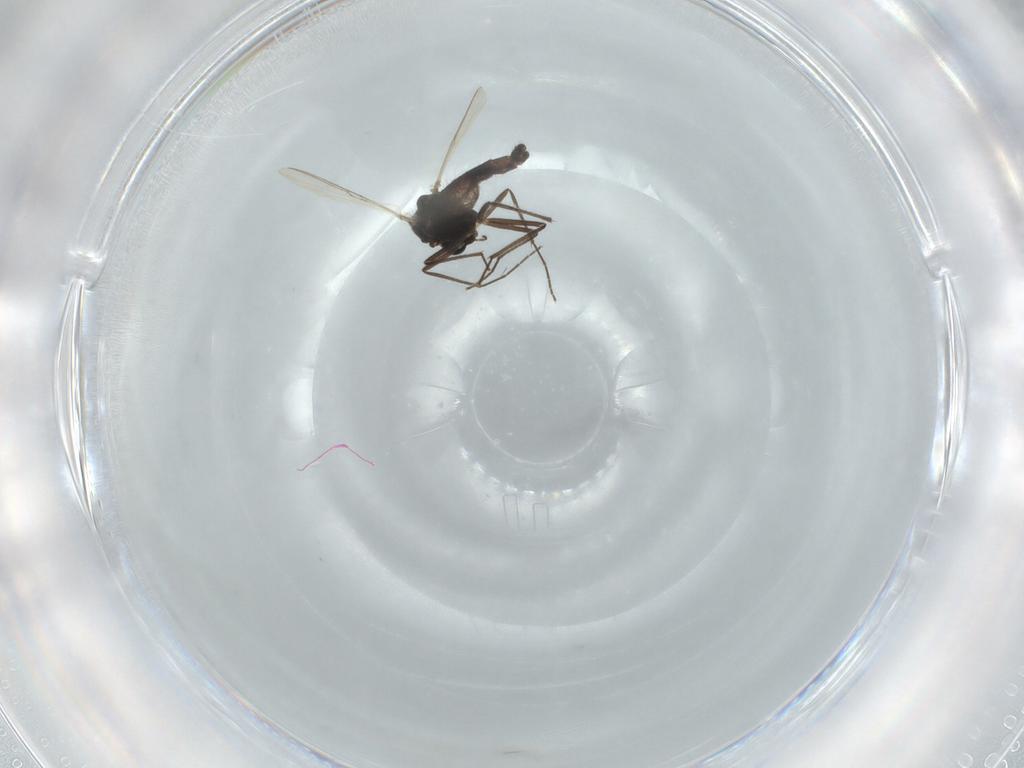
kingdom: Animalia
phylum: Arthropoda
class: Insecta
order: Diptera
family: Chironomidae
